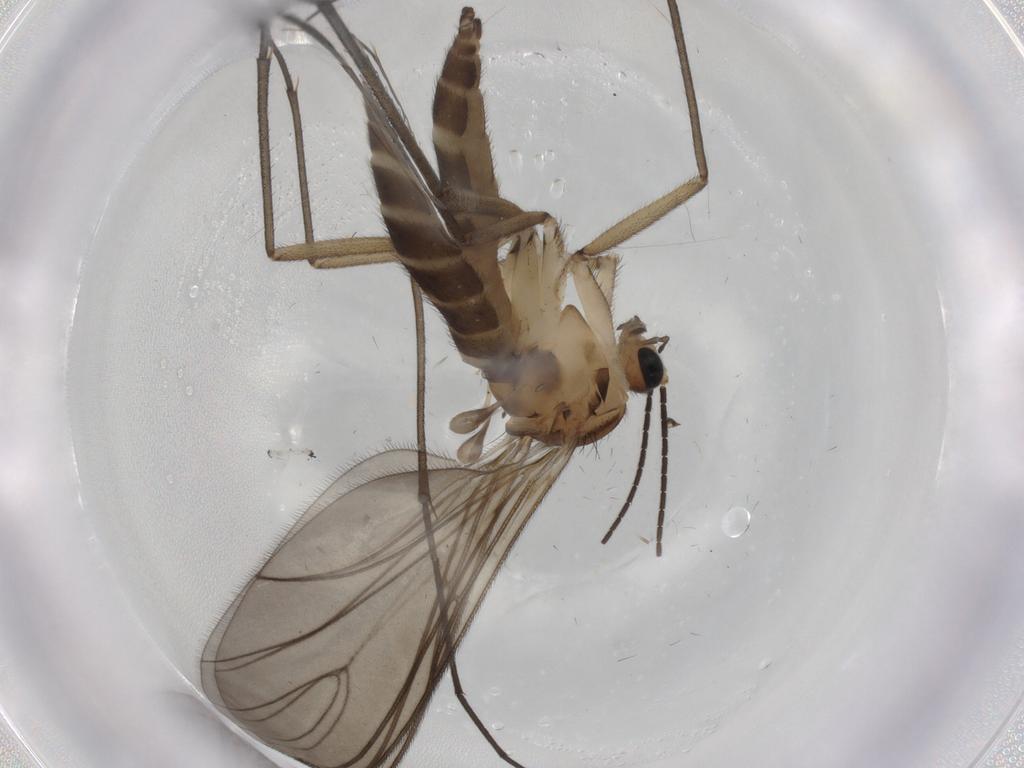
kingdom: Animalia
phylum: Arthropoda
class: Insecta
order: Diptera
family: Sciaridae
